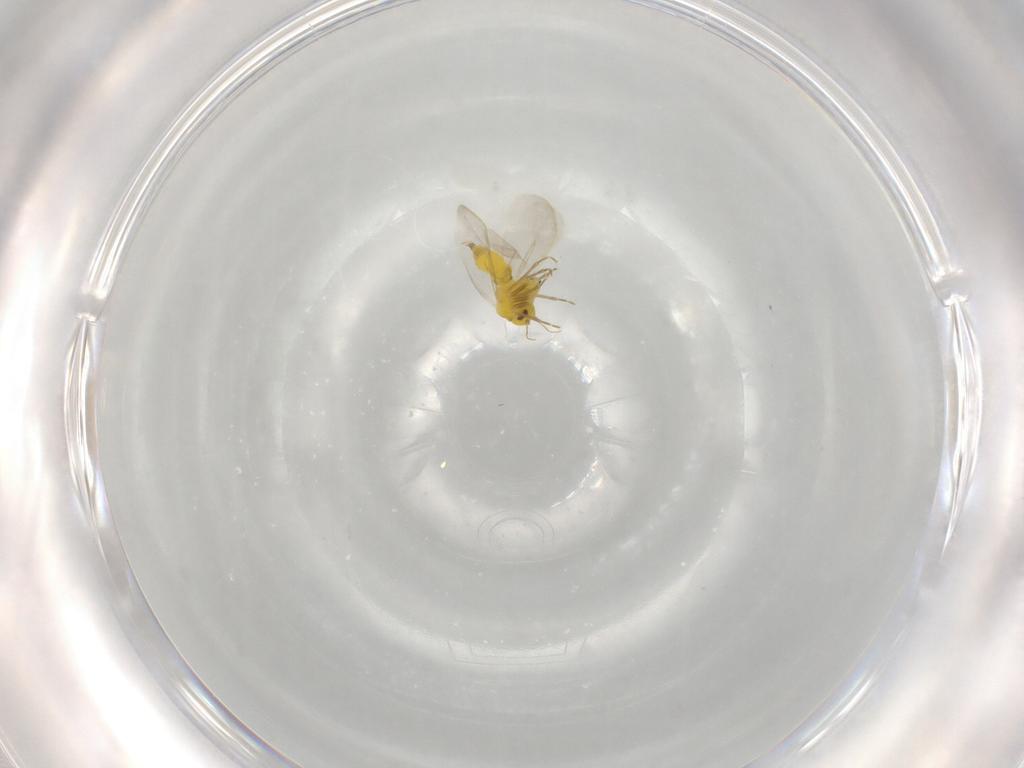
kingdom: Animalia
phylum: Arthropoda
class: Insecta
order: Hemiptera
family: Aleyrodidae
